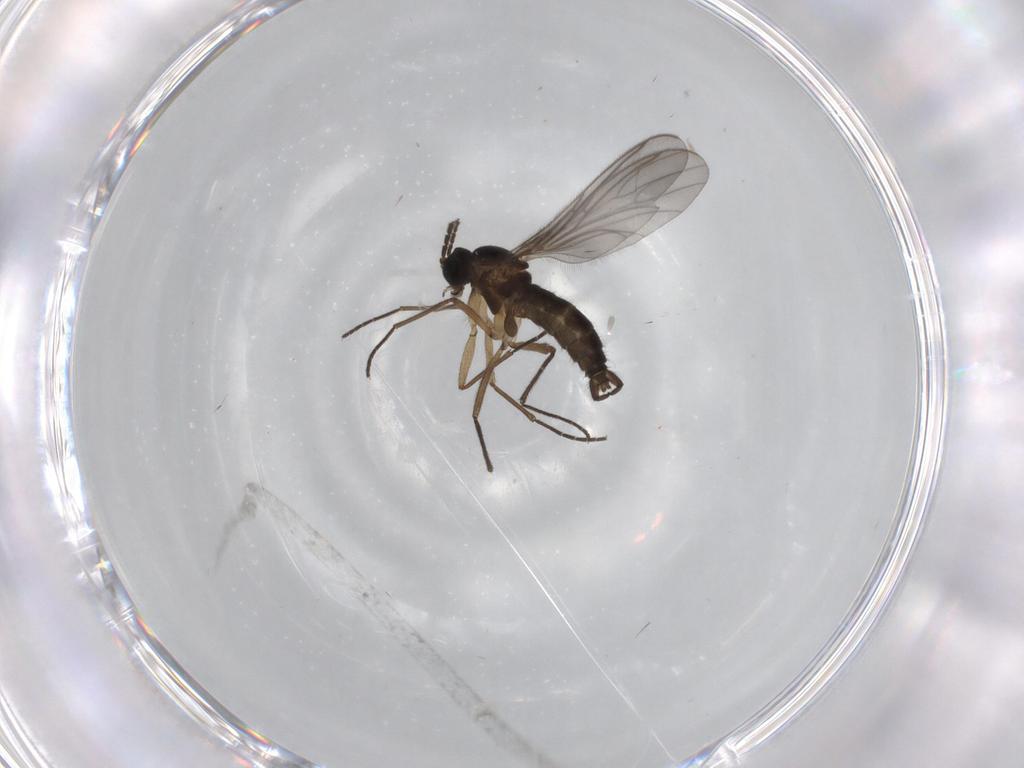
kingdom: Animalia
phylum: Arthropoda
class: Insecta
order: Diptera
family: Sciaridae
